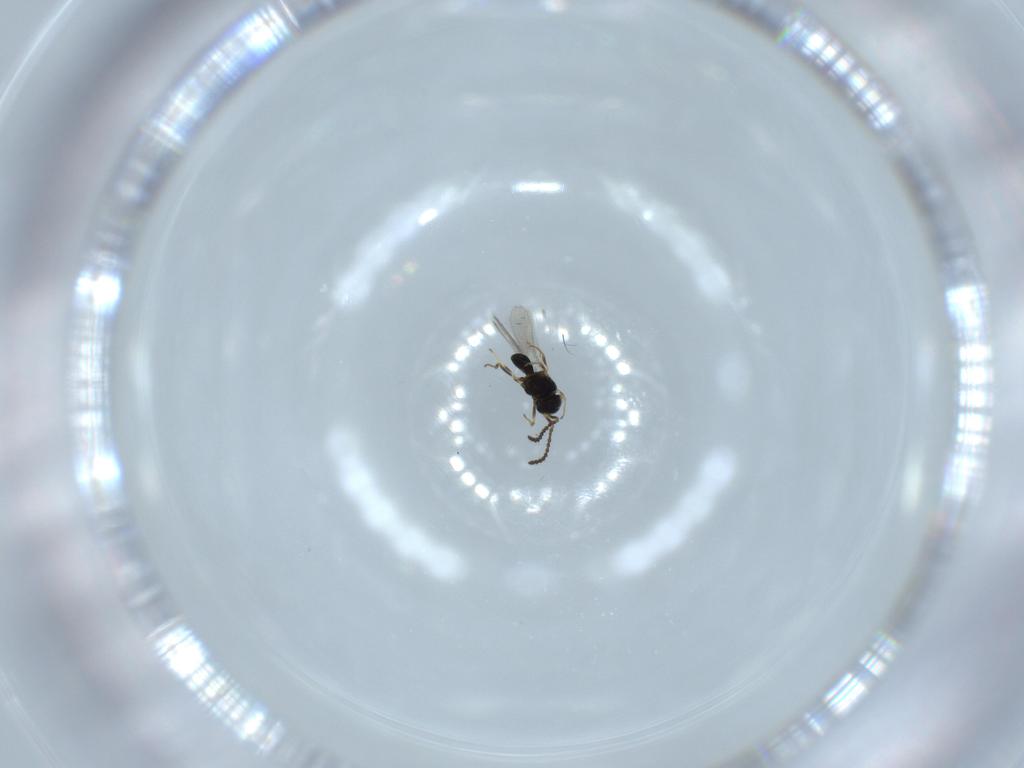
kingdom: Animalia
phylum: Arthropoda
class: Insecta
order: Hymenoptera
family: Scelionidae
